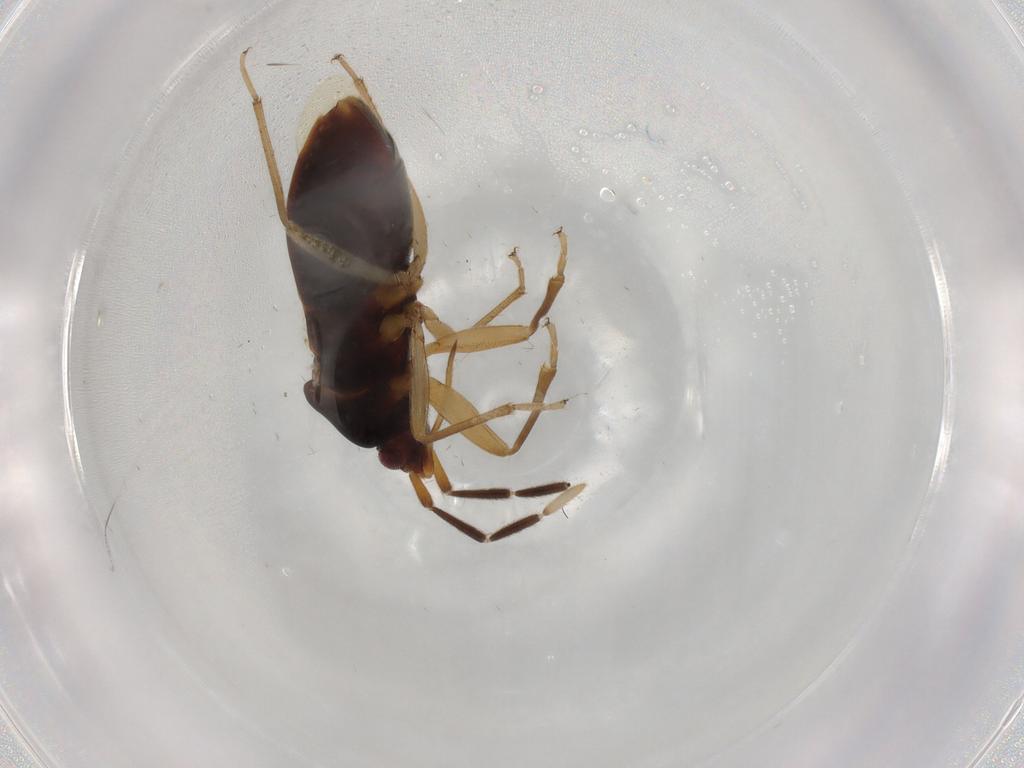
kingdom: Animalia
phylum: Arthropoda
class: Insecta
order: Hemiptera
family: Rhyparochromidae
